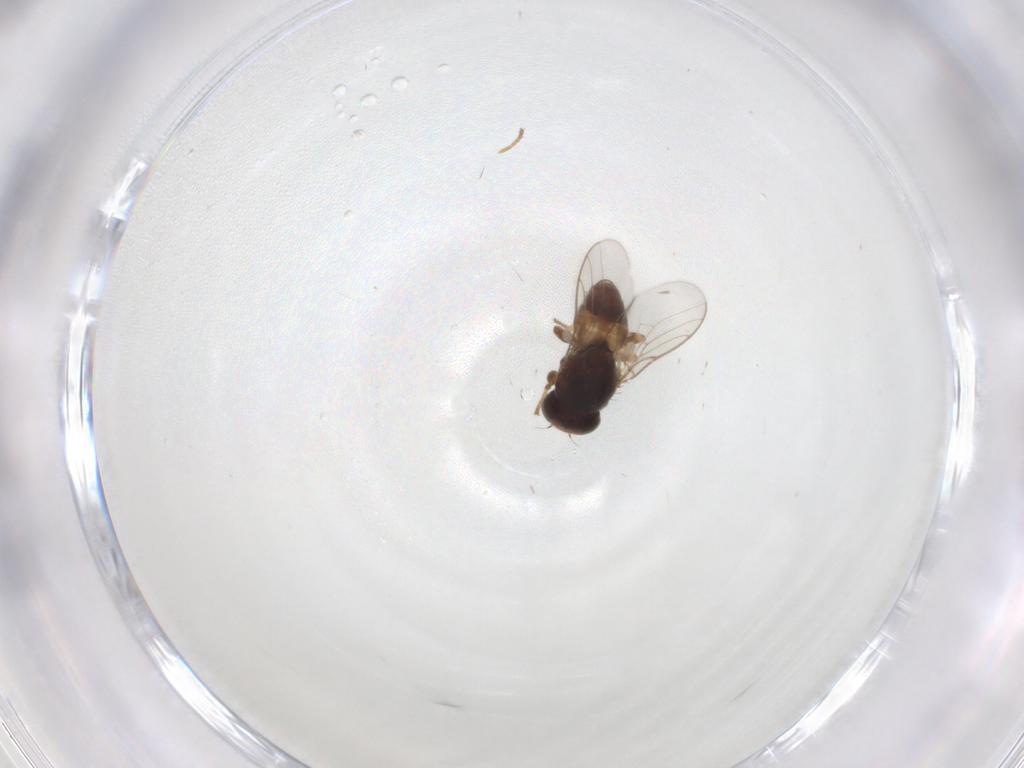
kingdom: Animalia
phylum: Arthropoda
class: Insecta
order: Diptera
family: Chloropidae
